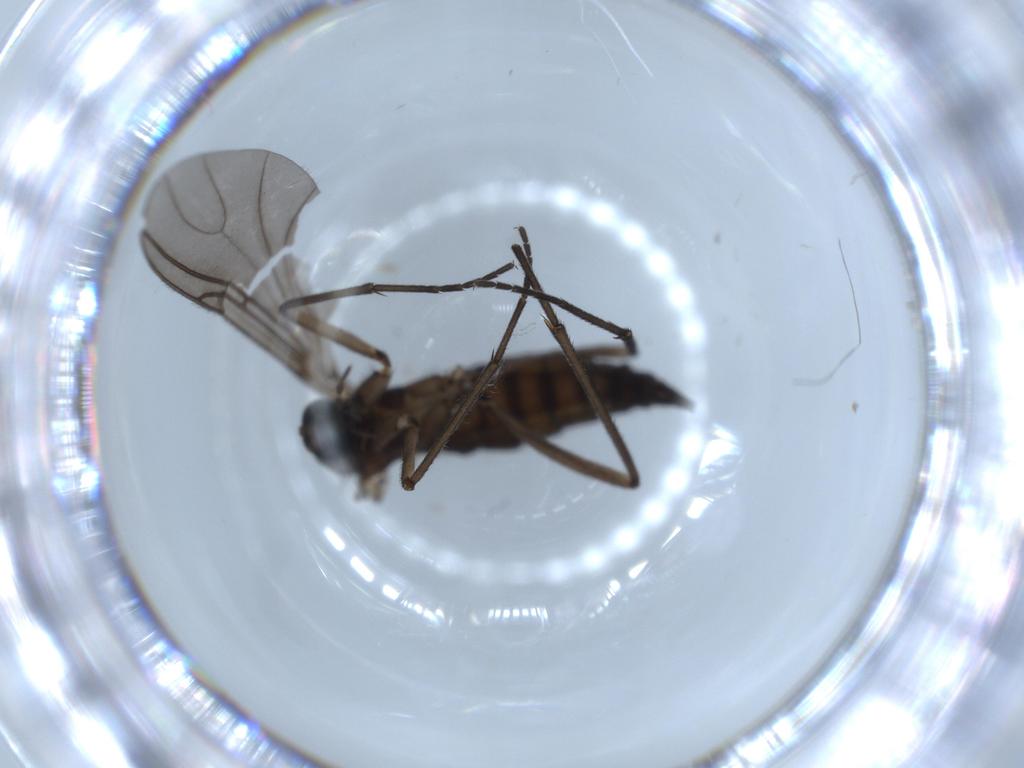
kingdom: Animalia
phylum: Arthropoda
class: Insecta
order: Diptera
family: Sciaridae
